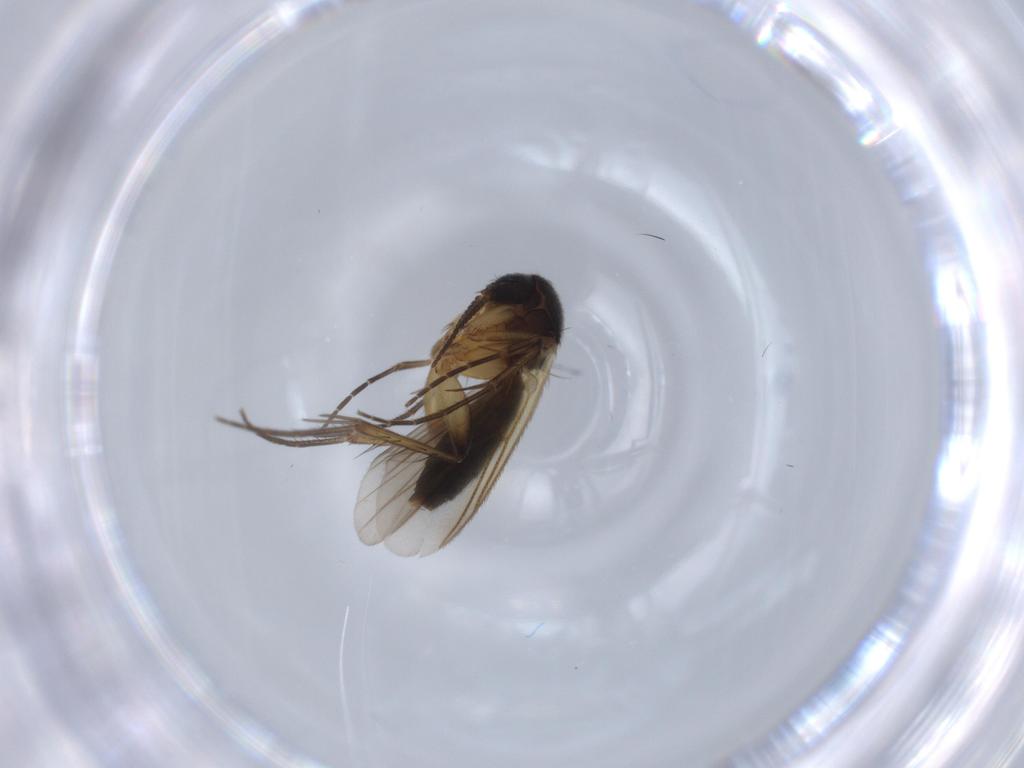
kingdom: Animalia
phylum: Arthropoda
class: Insecta
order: Diptera
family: Mycetophilidae
